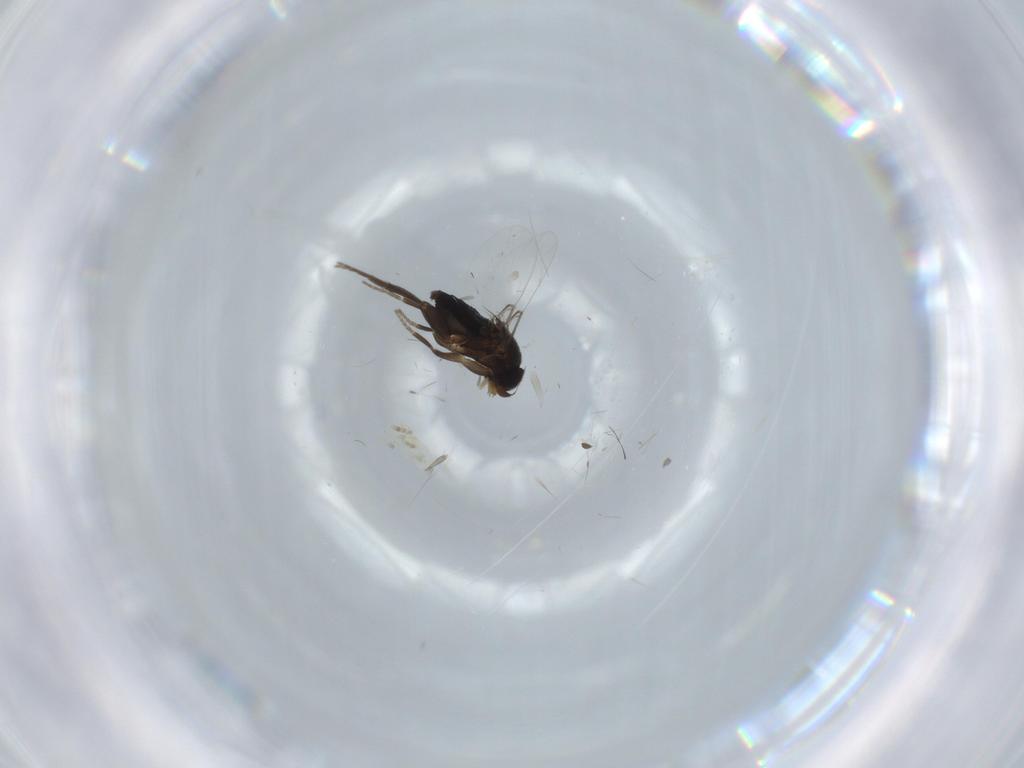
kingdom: Animalia
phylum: Arthropoda
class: Insecta
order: Diptera
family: Phoridae
